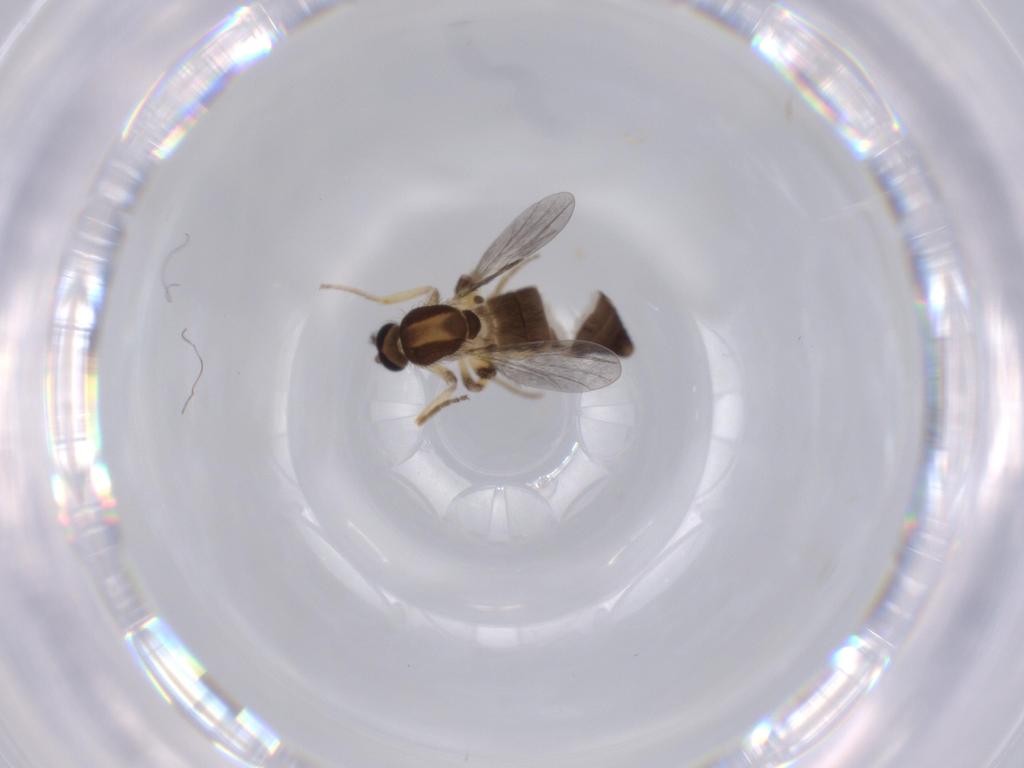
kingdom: Animalia
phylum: Arthropoda
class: Insecta
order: Diptera
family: Ceratopogonidae
